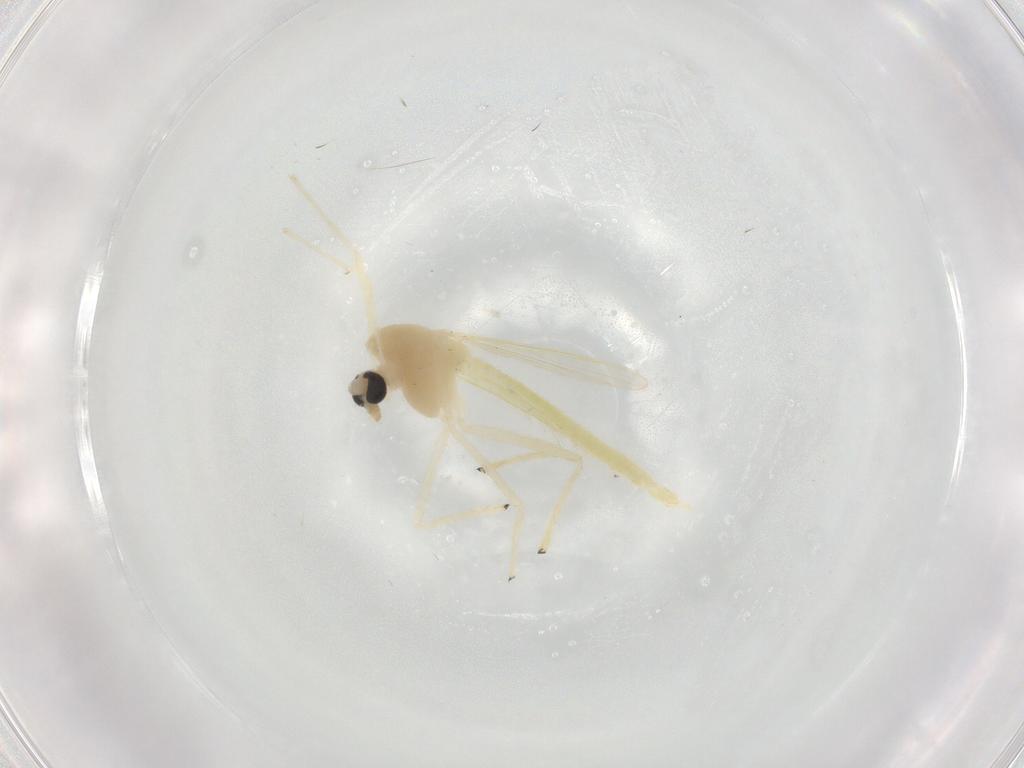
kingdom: Animalia
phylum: Arthropoda
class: Insecta
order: Diptera
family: Chironomidae
